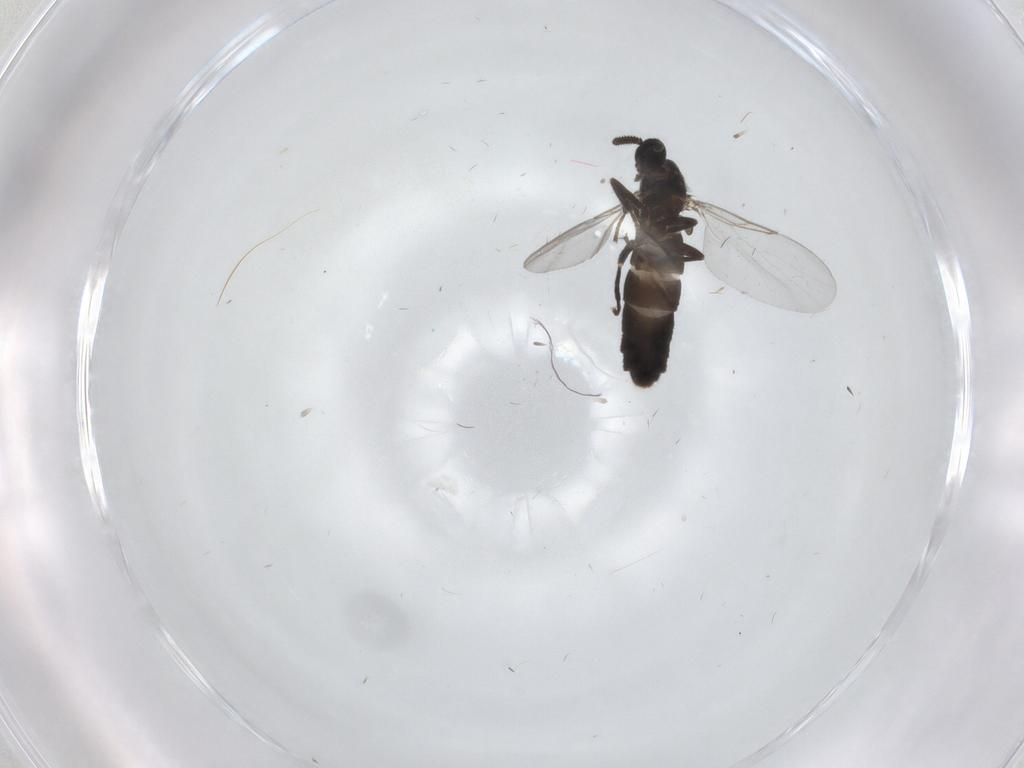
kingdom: Animalia
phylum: Arthropoda
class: Insecta
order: Diptera
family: Scatopsidae
